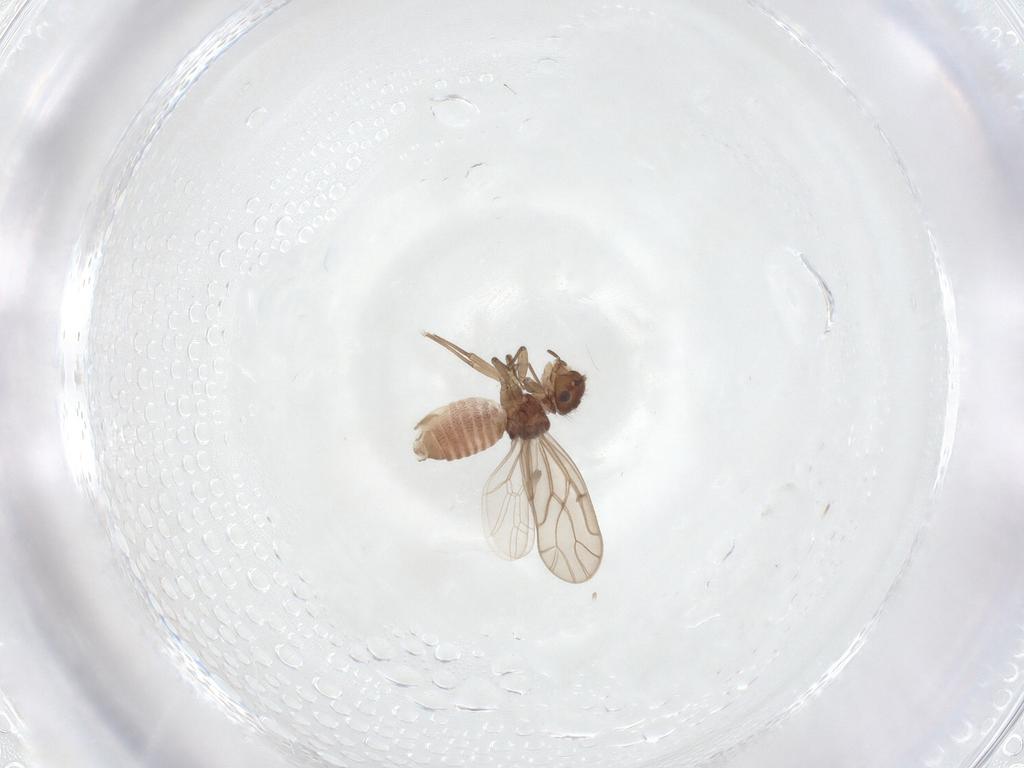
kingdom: Animalia
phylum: Arthropoda
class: Insecta
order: Psocodea
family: Ectopsocidae
